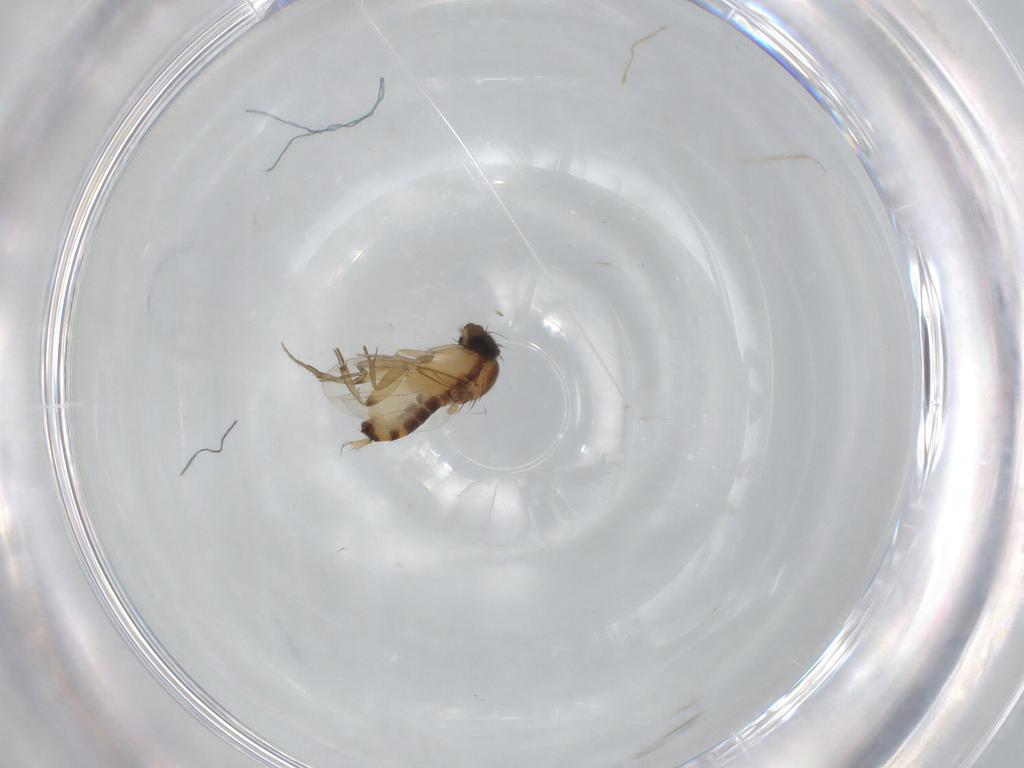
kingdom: Animalia
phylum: Arthropoda
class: Insecta
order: Diptera
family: Phoridae
